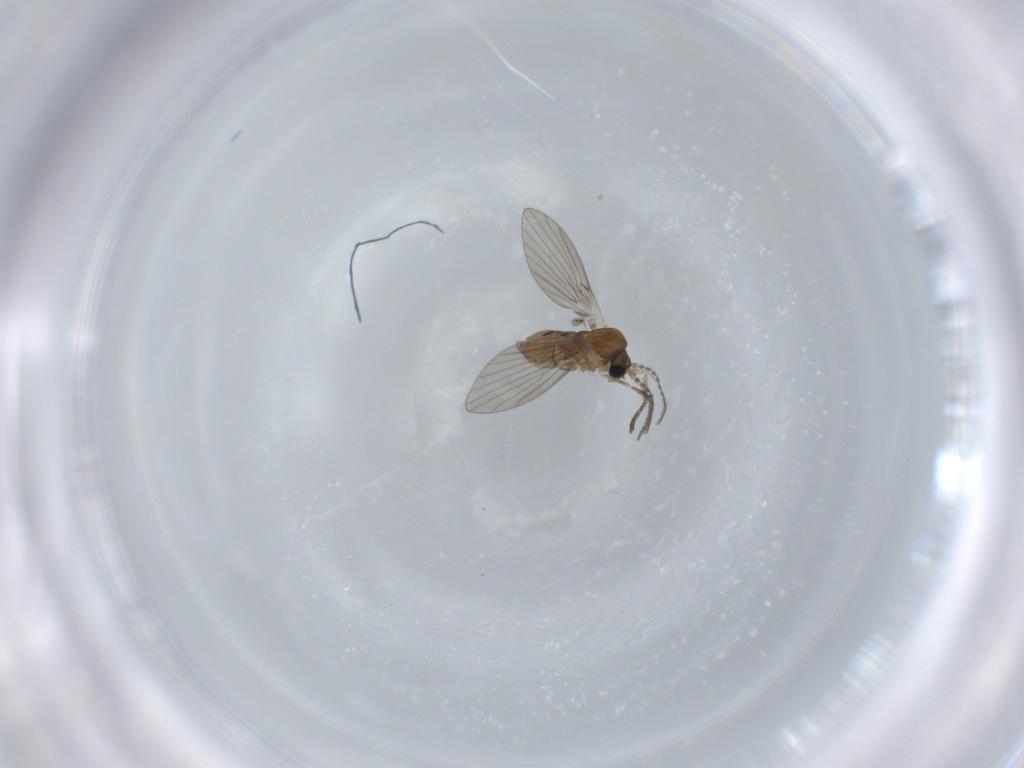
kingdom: Animalia
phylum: Arthropoda
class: Insecta
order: Diptera
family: Psychodidae
